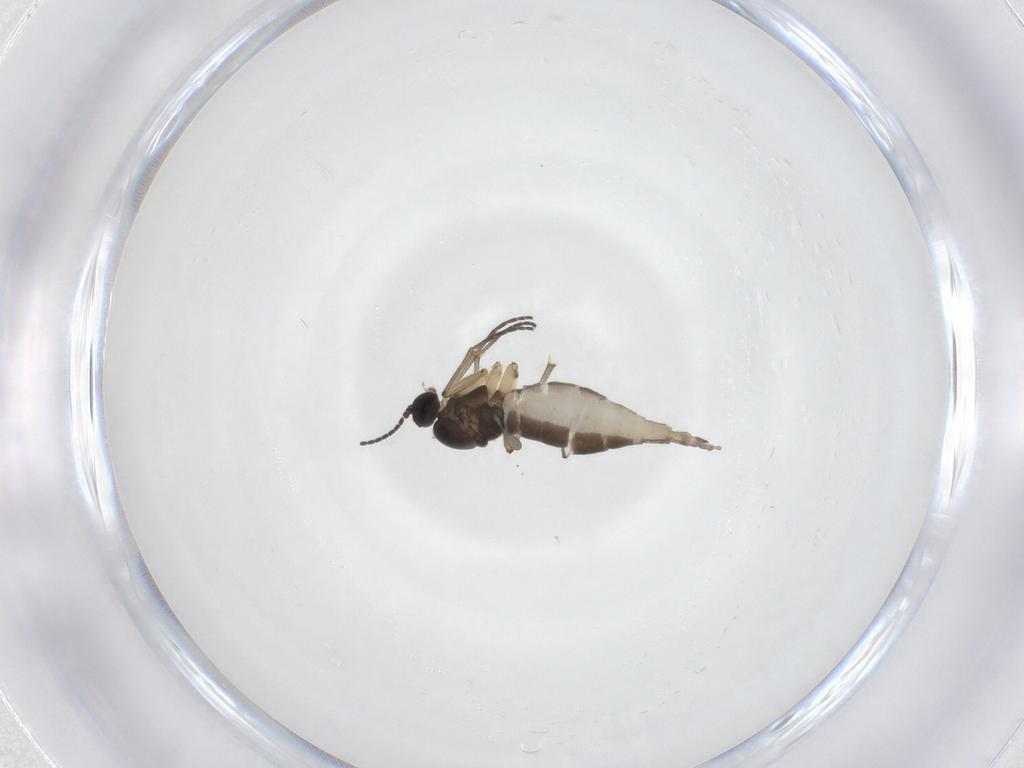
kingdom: Animalia
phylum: Arthropoda
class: Insecta
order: Diptera
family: Sciaridae
